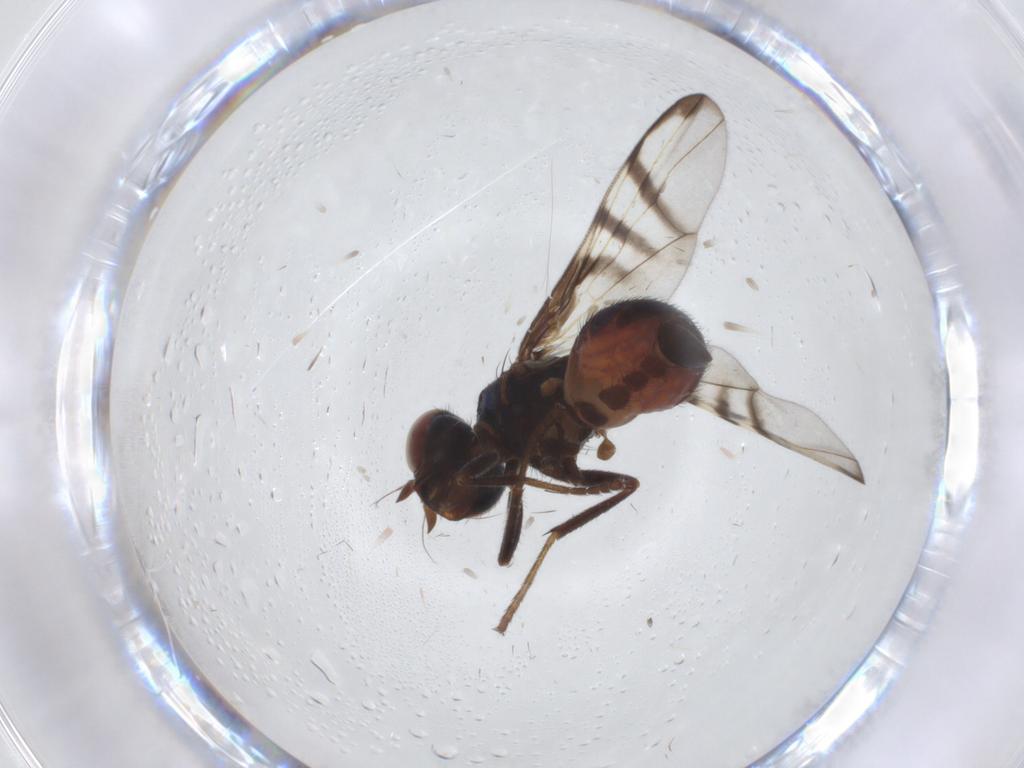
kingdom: Animalia
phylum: Arthropoda
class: Insecta
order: Diptera
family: Platystomatidae
